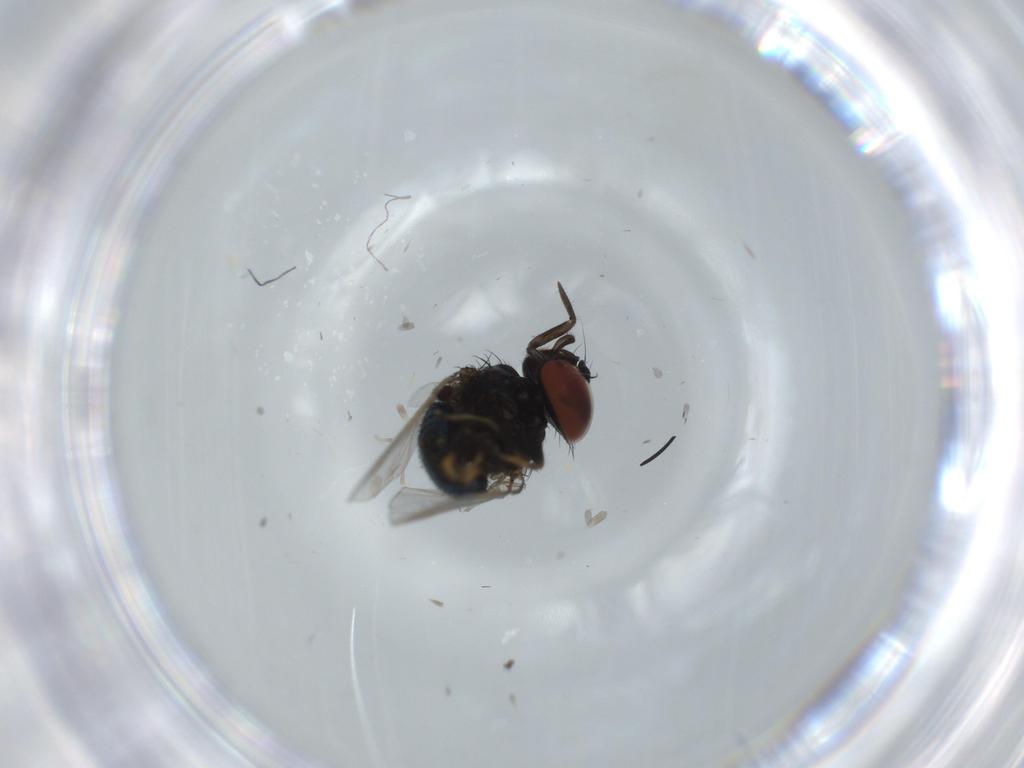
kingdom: Animalia
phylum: Arthropoda
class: Insecta
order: Diptera
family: Milichiidae
